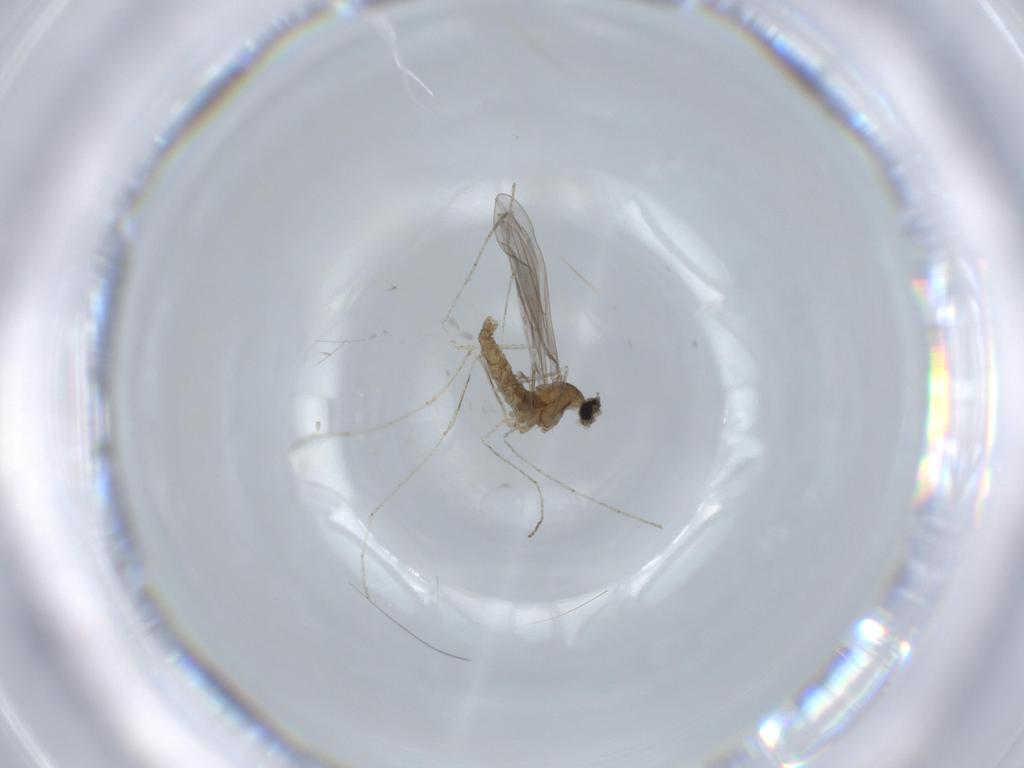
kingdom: Animalia
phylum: Arthropoda
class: Insecta
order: Diptera
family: Cecidomyiidae
